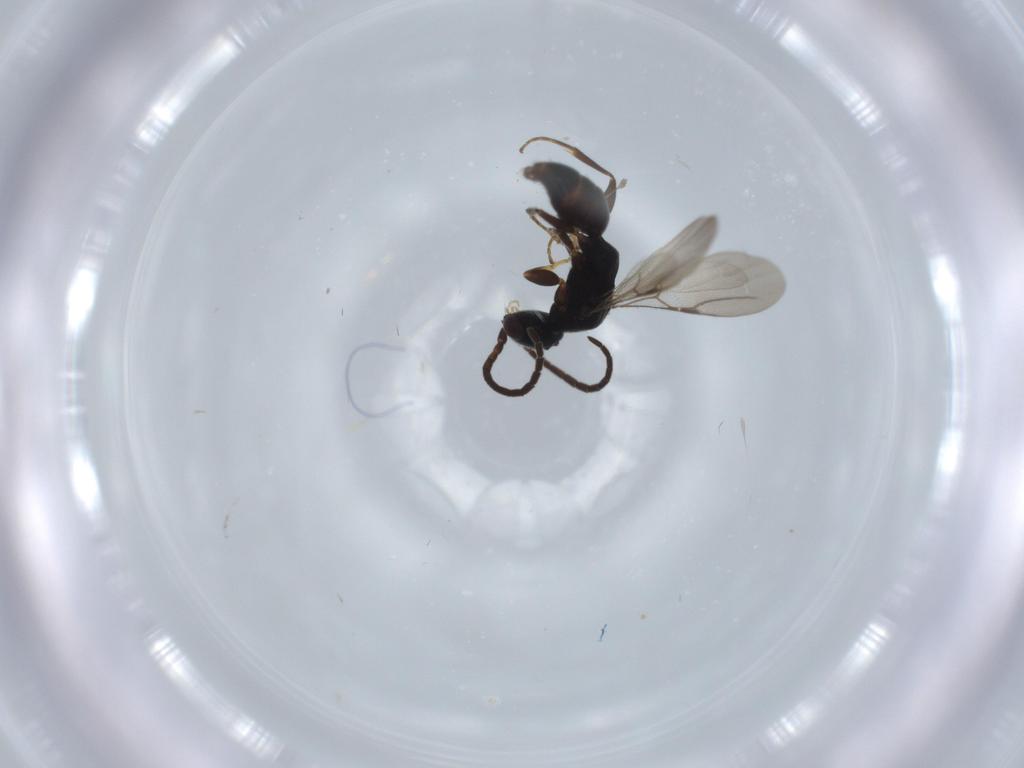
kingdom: Animalia
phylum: Arthropoda
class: Insecta
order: Hymenoptera
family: Bethylidae
